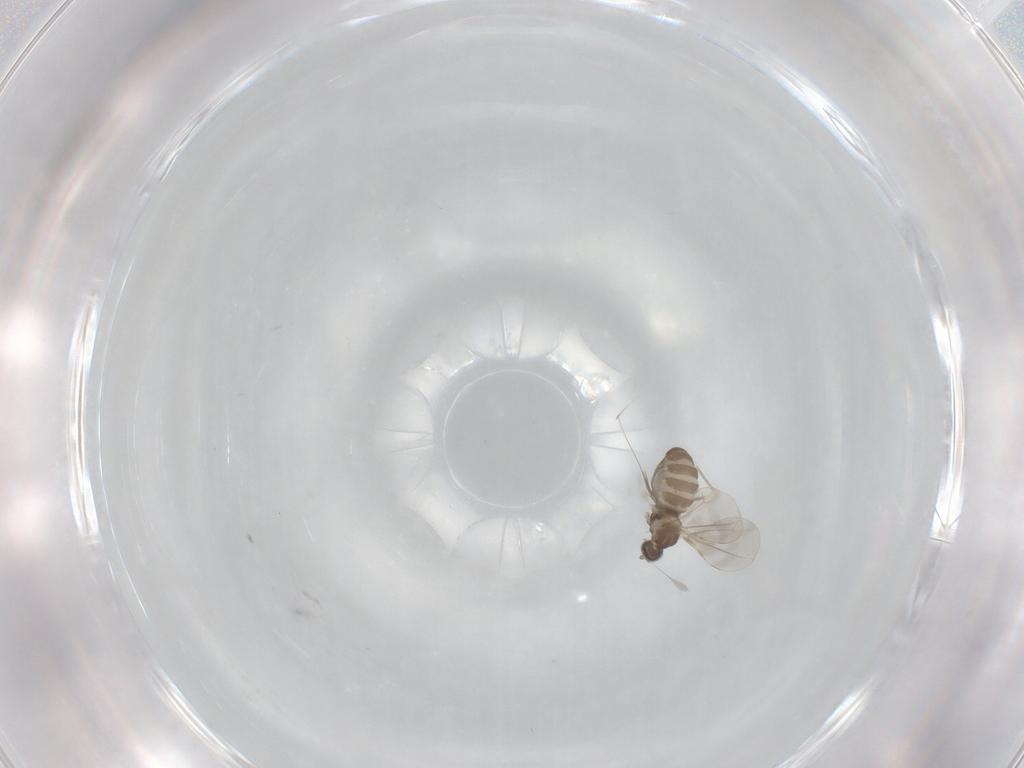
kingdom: Animalia
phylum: Arthropoda
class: Insecta
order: Diptera
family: Cecidomyiidae
